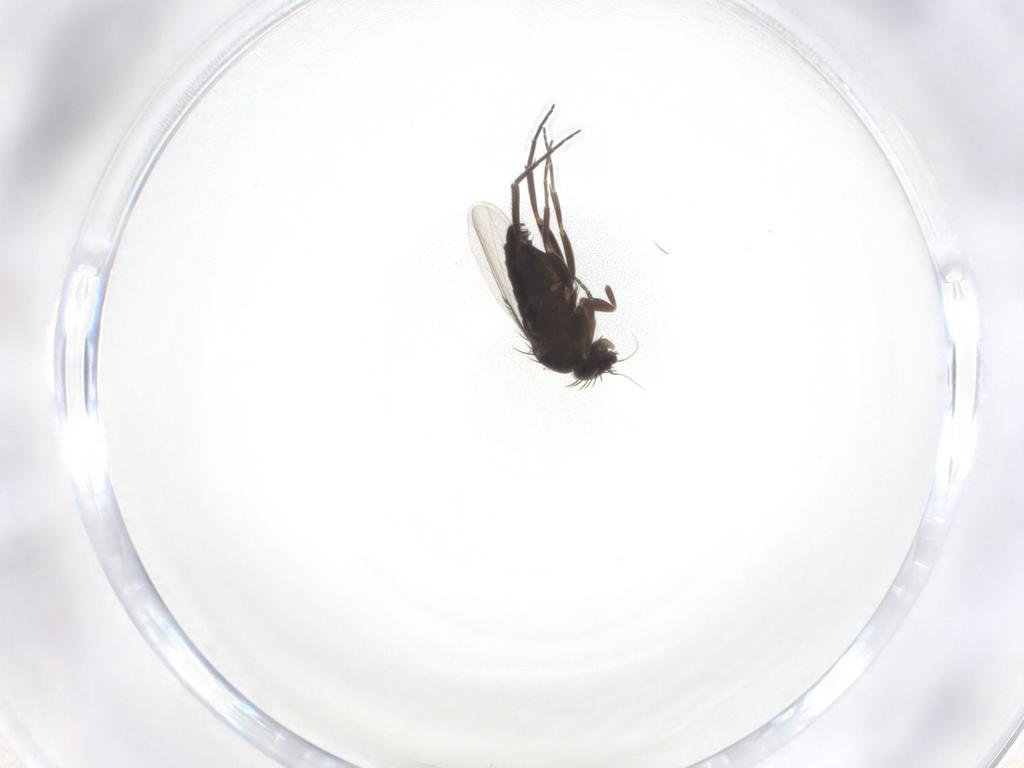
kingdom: Animalia
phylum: Arthropoda
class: Insecta
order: Diptera
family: Phoridae
